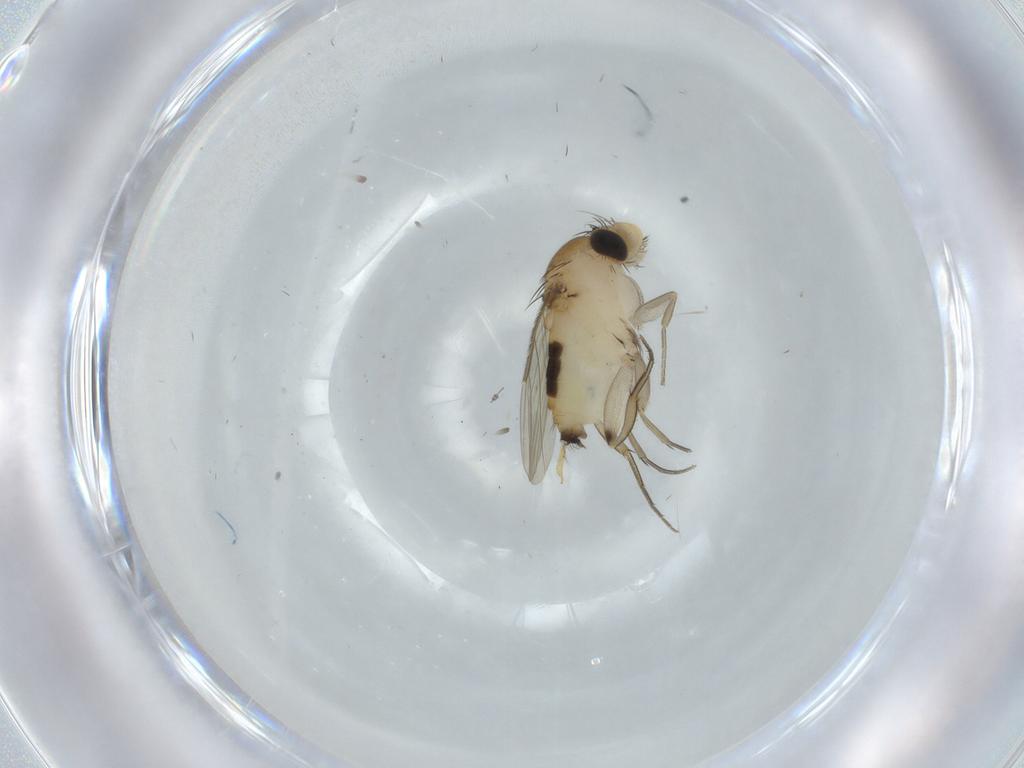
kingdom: Animalia
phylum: Arthropoda
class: Insecta
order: Diptera
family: Phoridae
